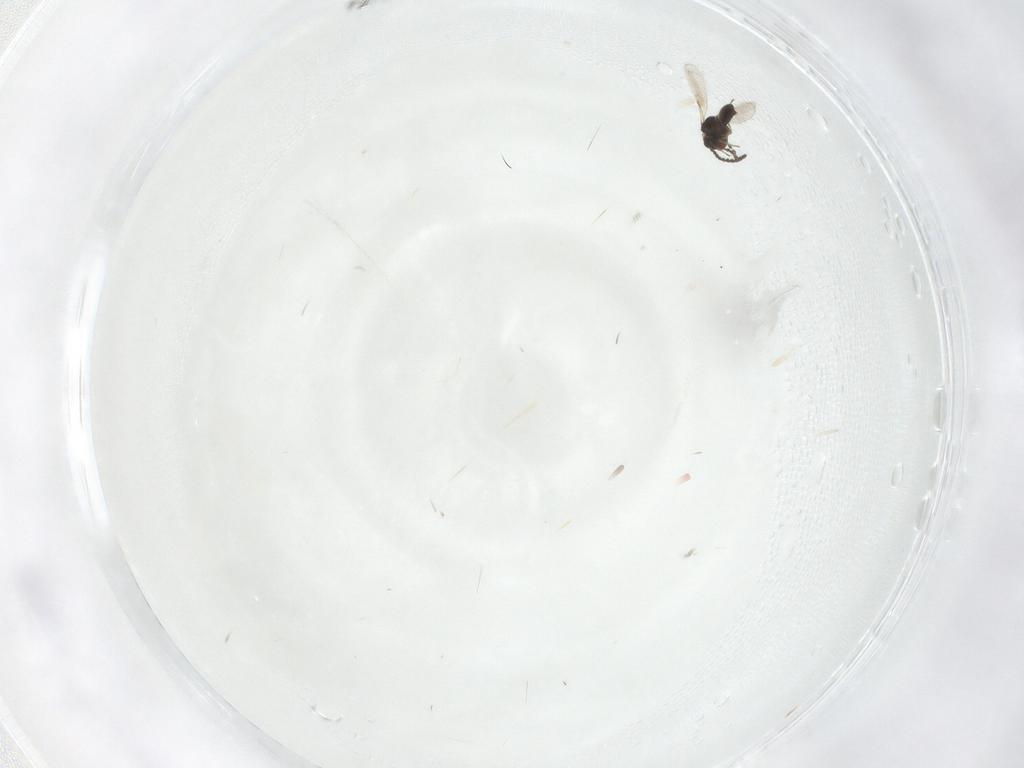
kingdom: Animalia
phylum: Arthropoda
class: Insecta
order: Hymenoptera
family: Scelionidae
